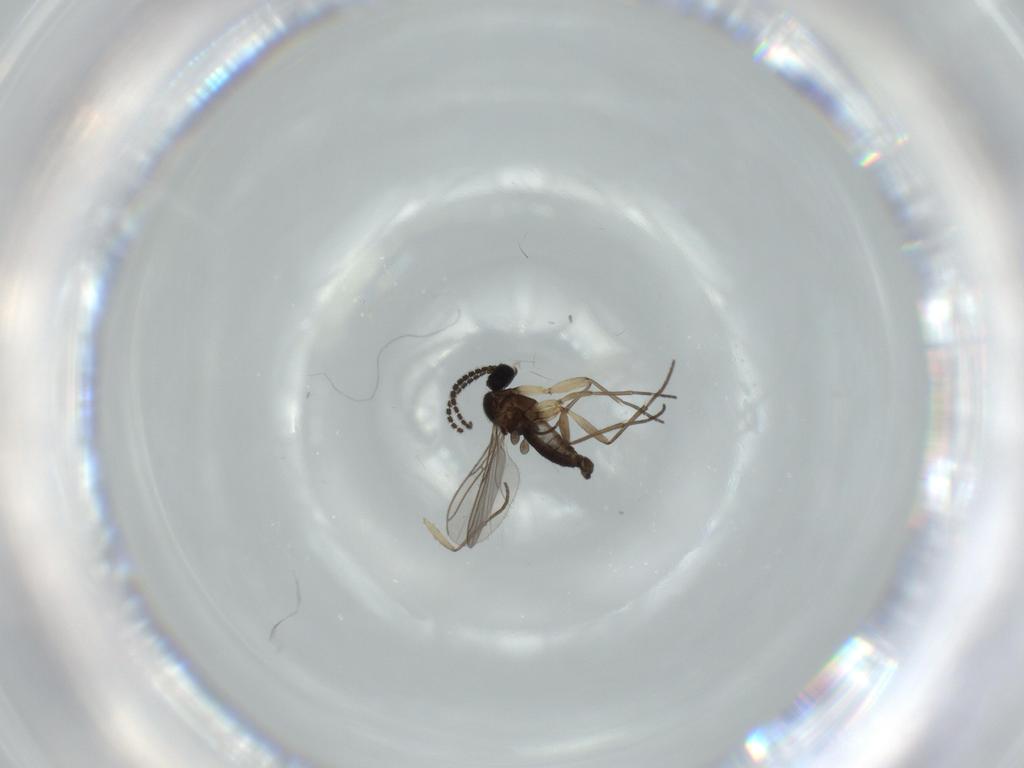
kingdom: Animalia
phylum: Arthropoda
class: Insecta
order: Diptera
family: Sciaridae
